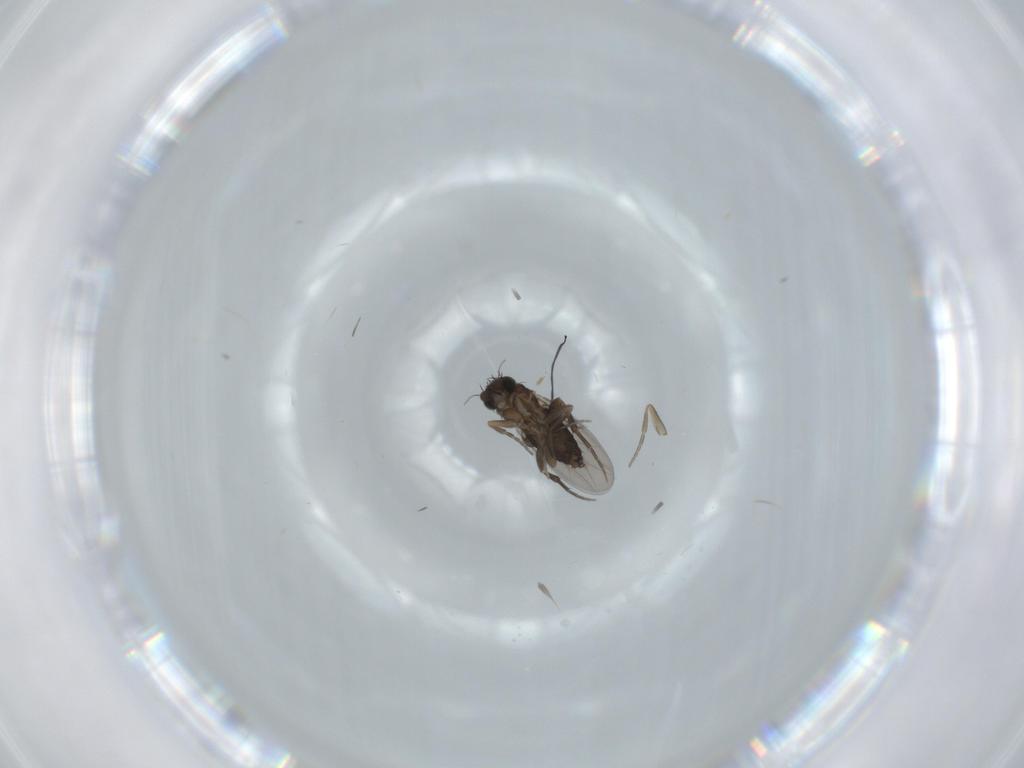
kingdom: Animalia
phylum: Arthropoda
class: Insecta
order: Diptera
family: Phoridae
